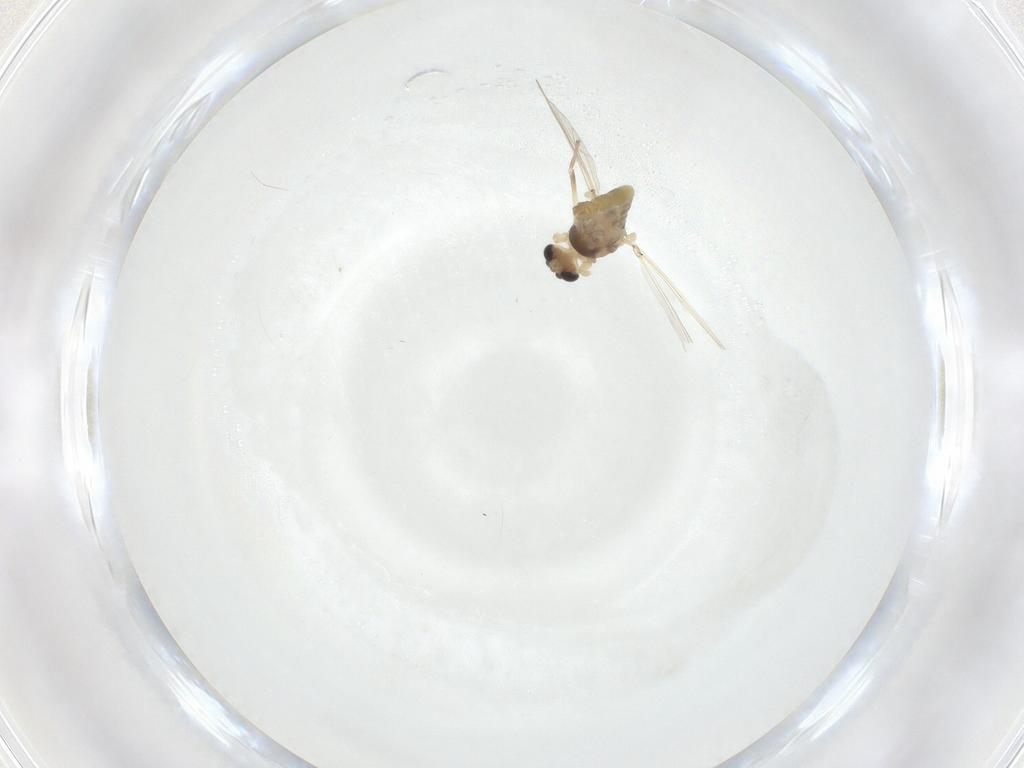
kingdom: Animalia
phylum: Arthropoda
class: Insecta
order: Diptera
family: Chironomidae
